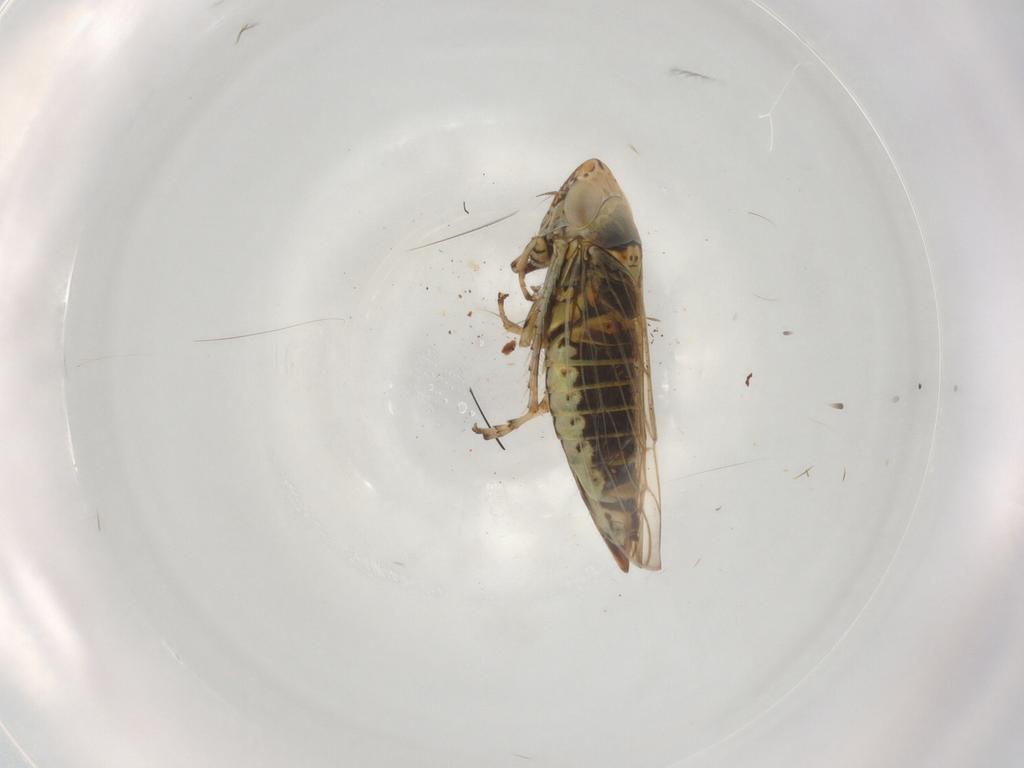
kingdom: Animalia
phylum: Arthropoda
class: Insecta
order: Hemiptera
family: Cicadellidae
